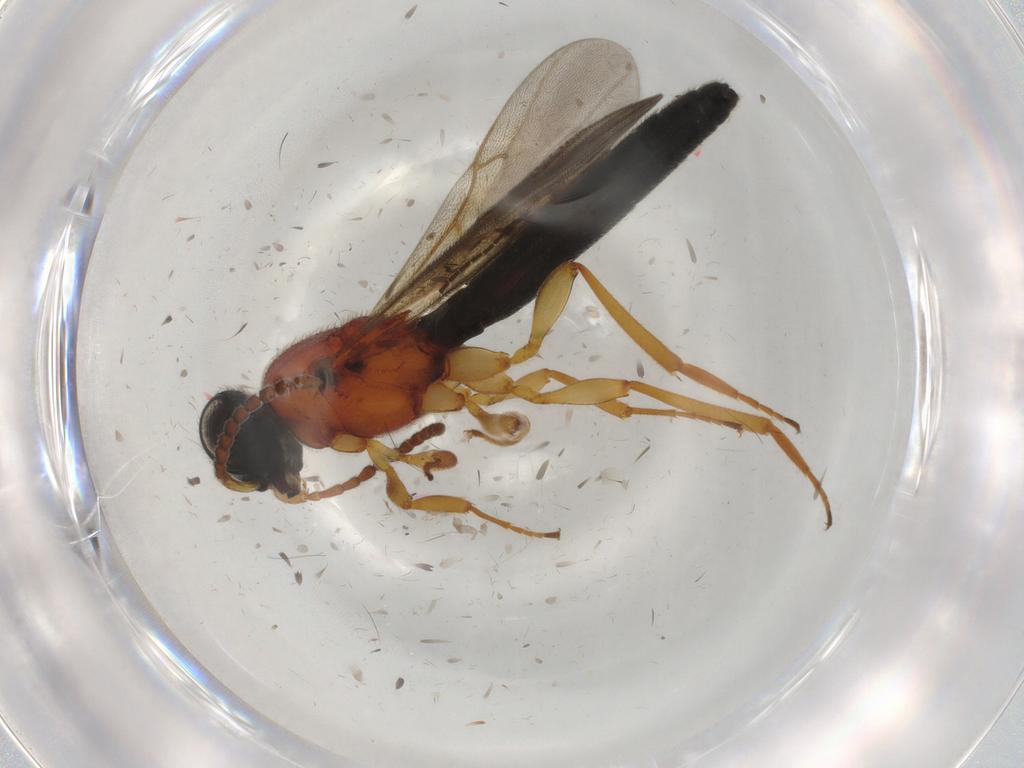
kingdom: Animalia
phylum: Arthropoda
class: Insecta
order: Hymenoptera
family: Scelionidae
